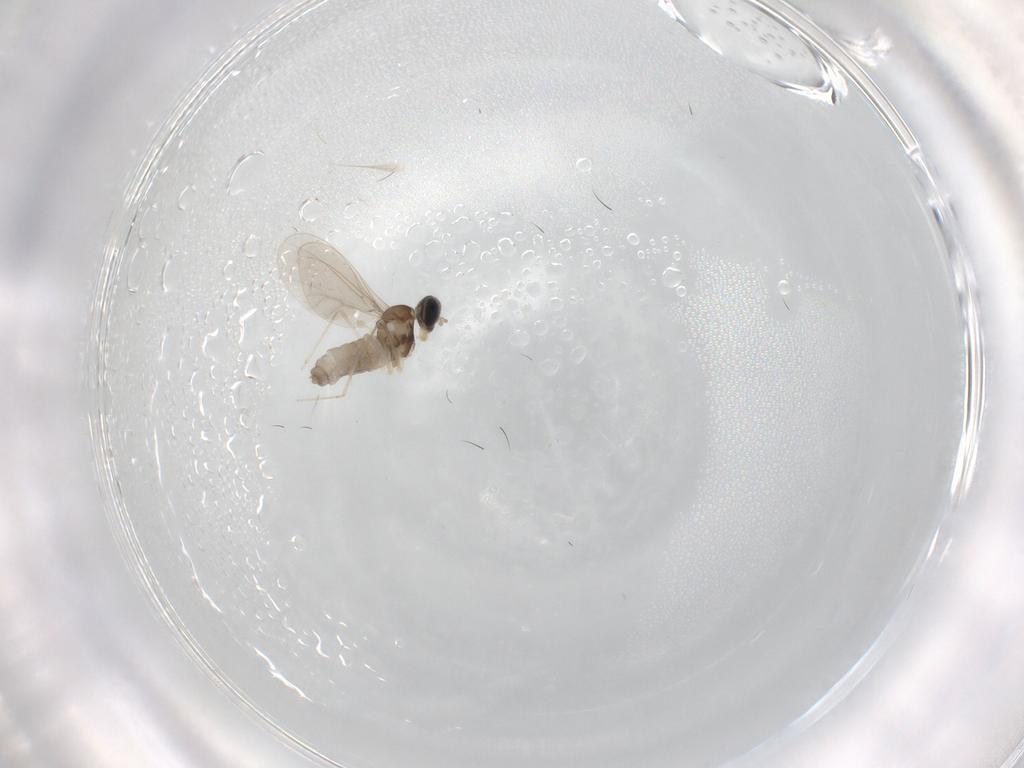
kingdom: Animalia
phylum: Arthropoda
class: Insecta
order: Diptera
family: Cecidomyiidae
